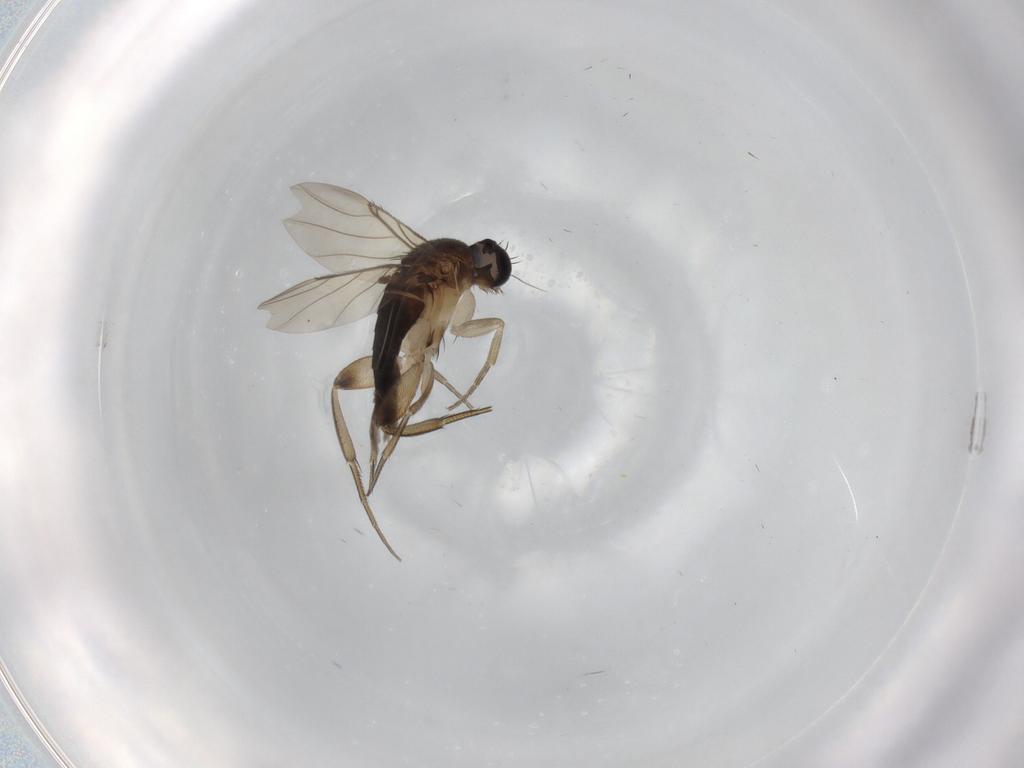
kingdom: Animalia
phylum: Arthropoda
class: Insecta
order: Diptera
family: Phoridae
